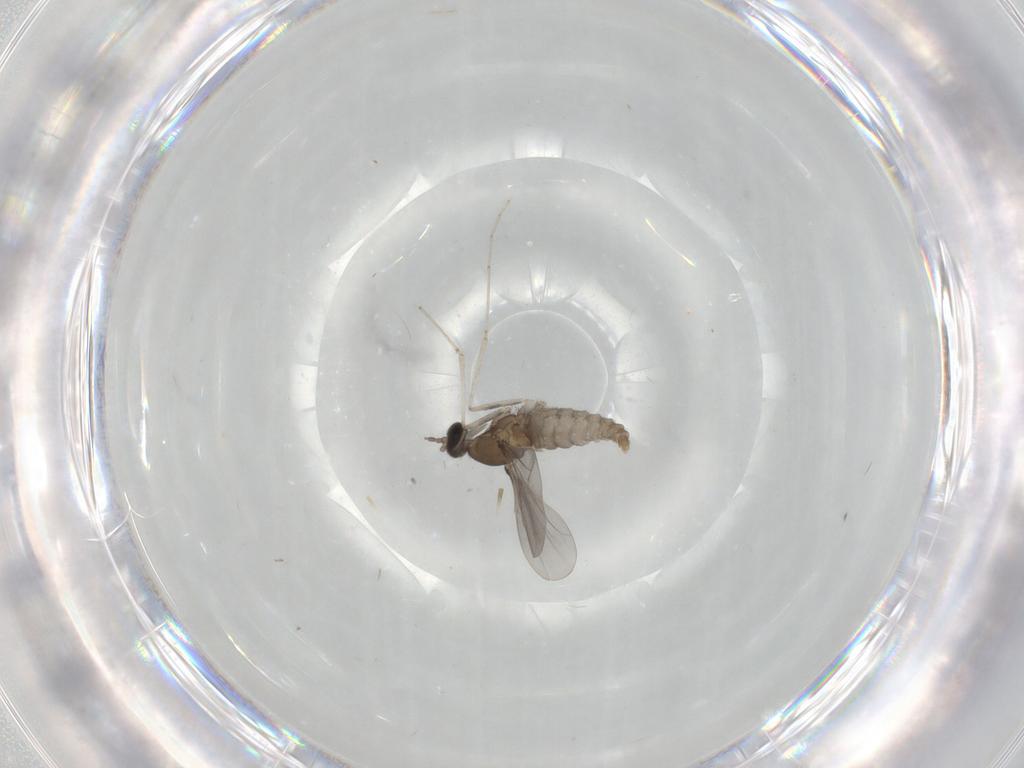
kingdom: Animalia
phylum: Arthropoda
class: Insecta
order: Diptera
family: Cecidomyiidae
